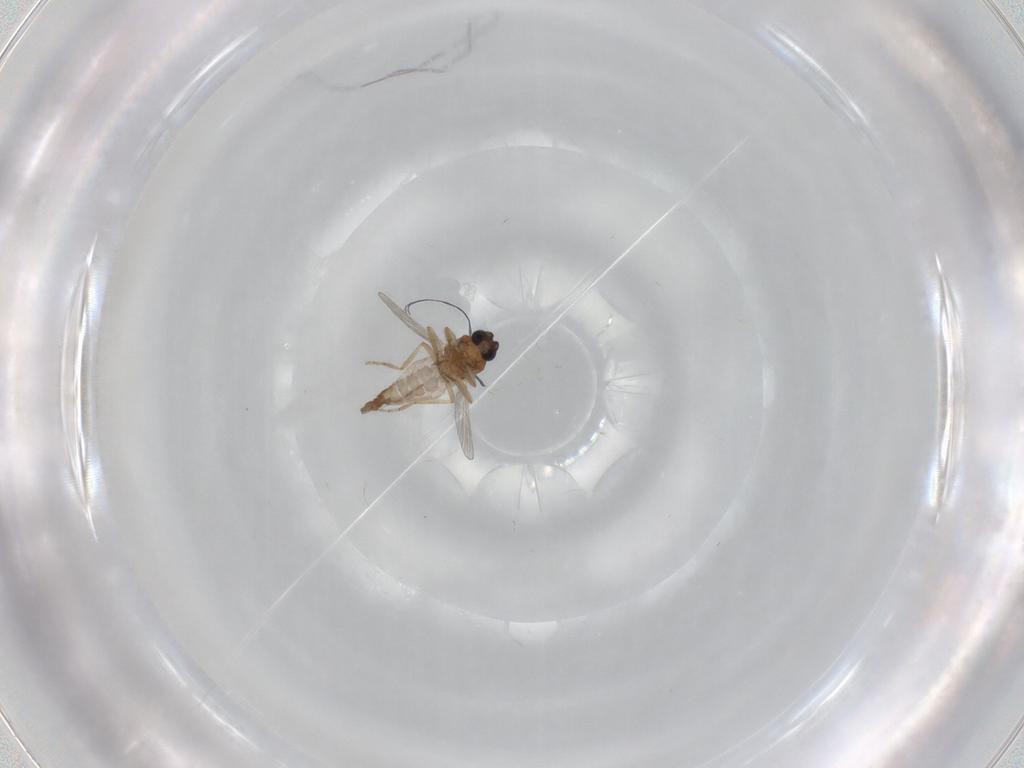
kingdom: Animalia
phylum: Arthropoda
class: Insecta
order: Diptera
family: Dolichopodidae
